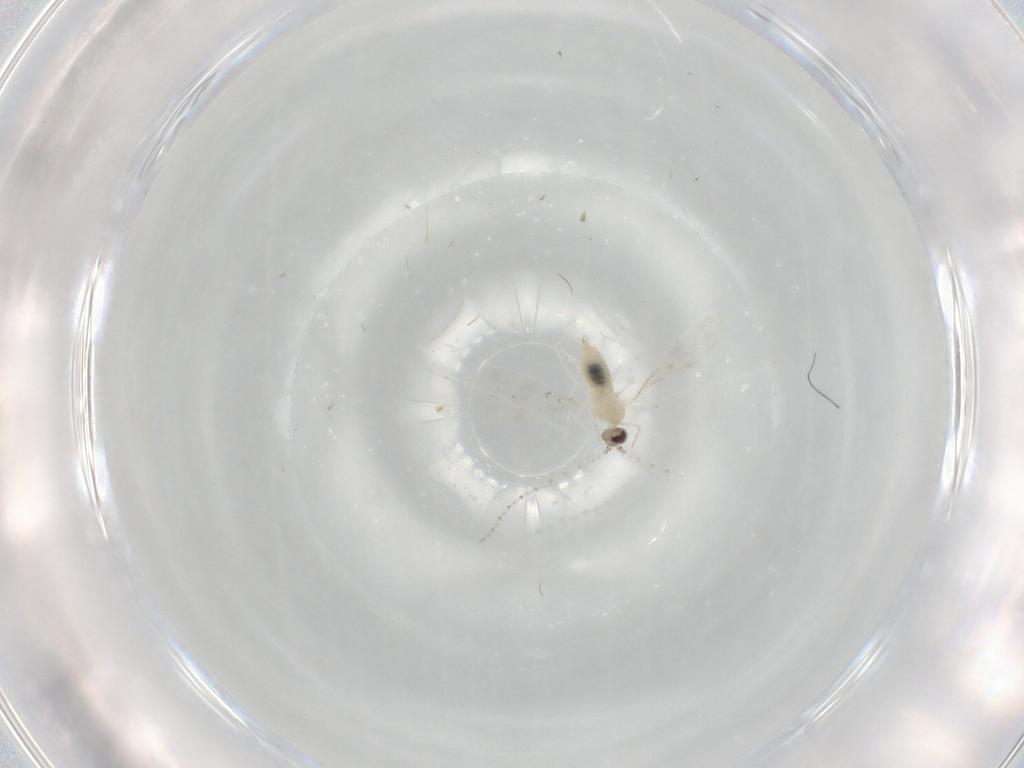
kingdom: Animalia
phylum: Arthropoda
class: Insecta
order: Diptera
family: Cecidomyiidae
